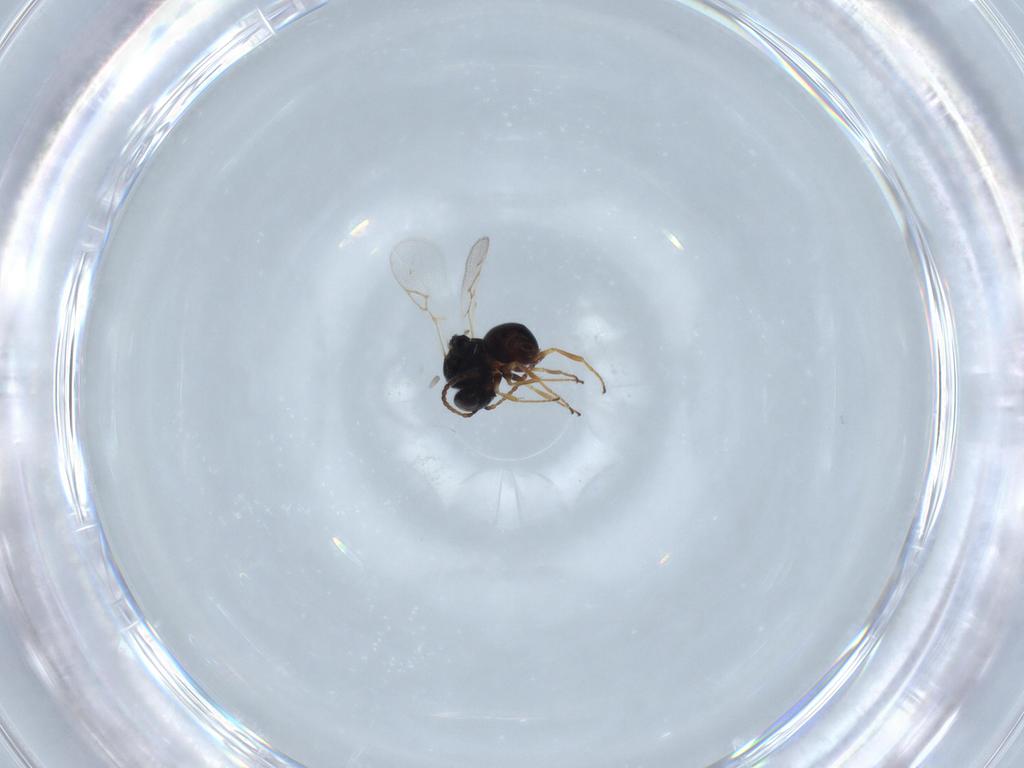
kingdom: Animalia
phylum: Arthropoda
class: Insecta
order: Hymenoptera
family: Figitidae
